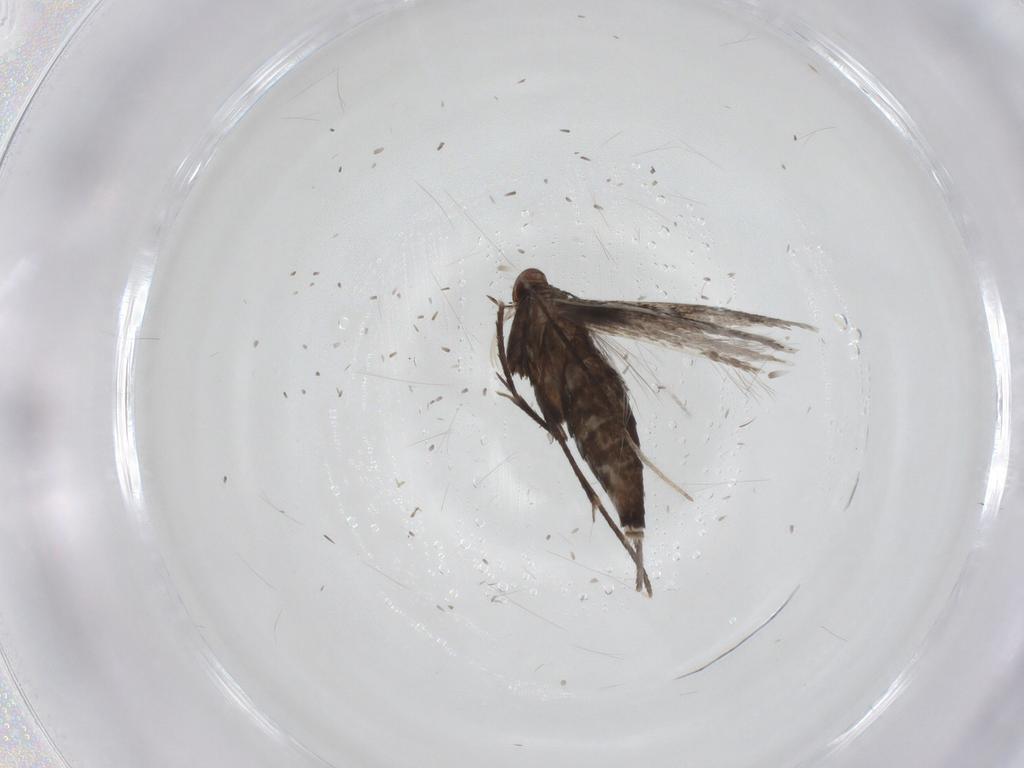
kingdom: Animalia
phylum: Arthropoda
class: Insecta
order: Lepidoptera
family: Gracillariidae
